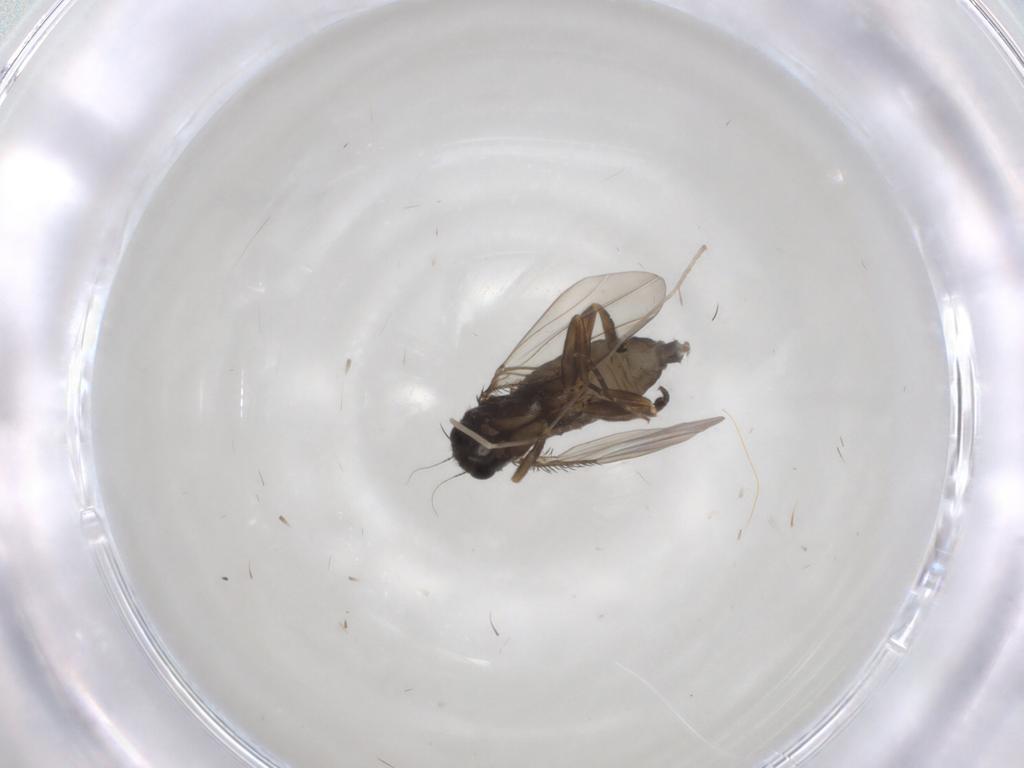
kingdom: Animalia
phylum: Arthropoda
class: Insecta
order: Diptera
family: Phoridae
